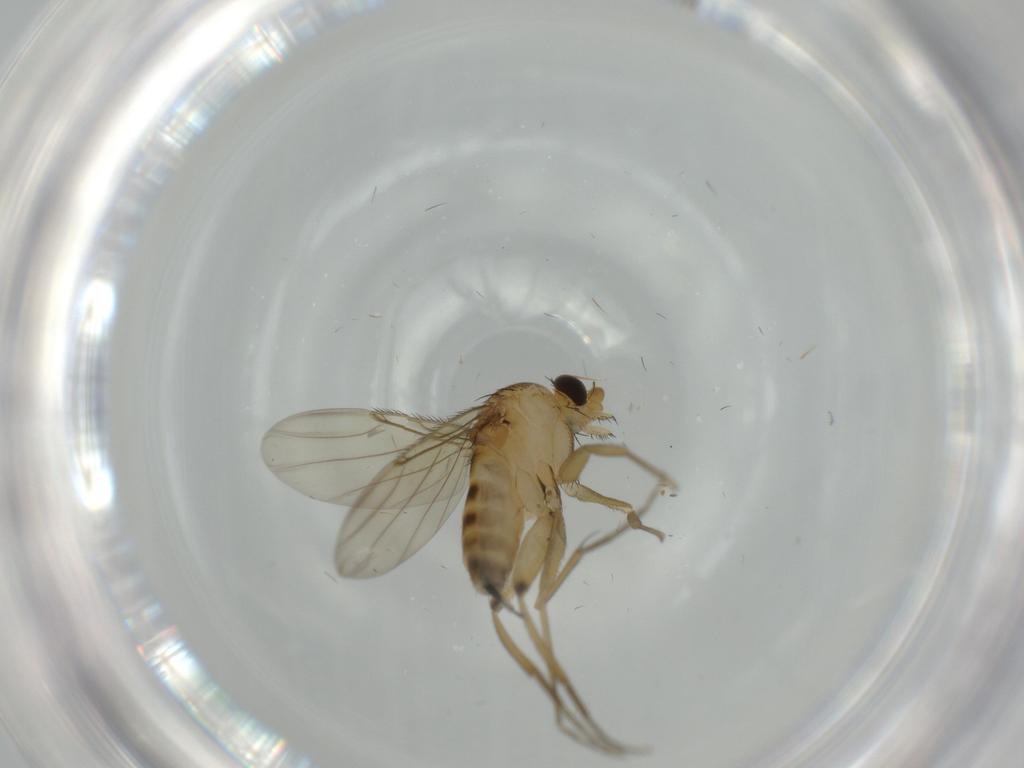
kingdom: Animalia
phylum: Arthropoda
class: Insecta
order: Diptera
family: Phoridae
